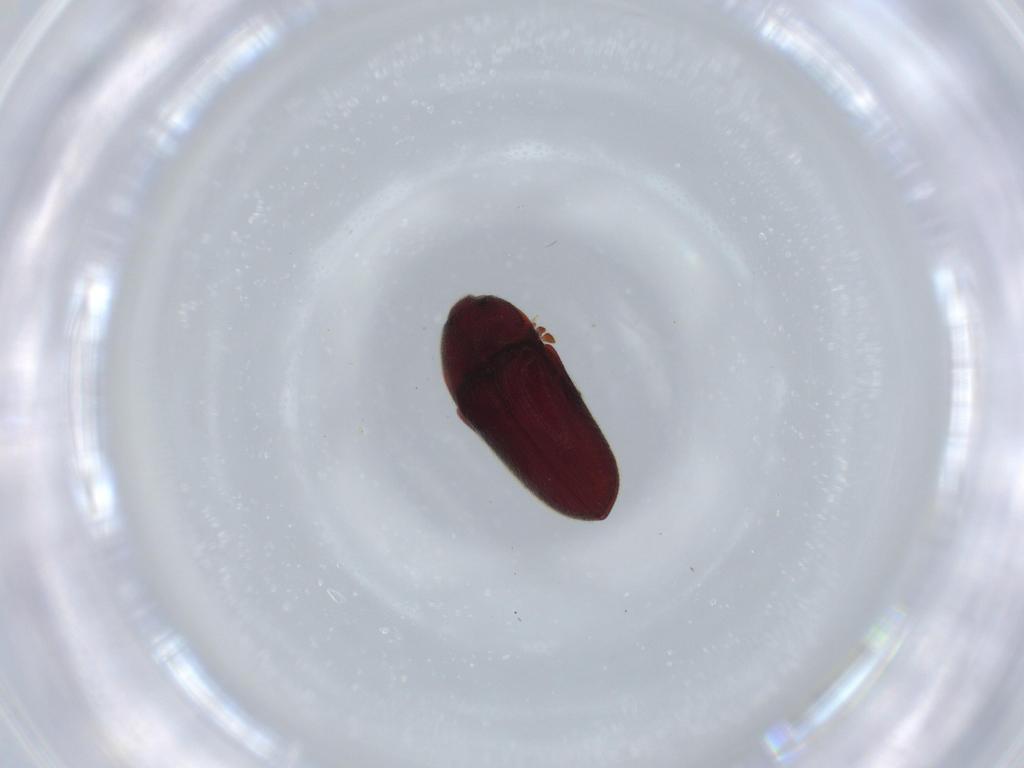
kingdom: Animalia
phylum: Arthropoda
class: Insecta
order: Coleoptera
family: Throscidae
